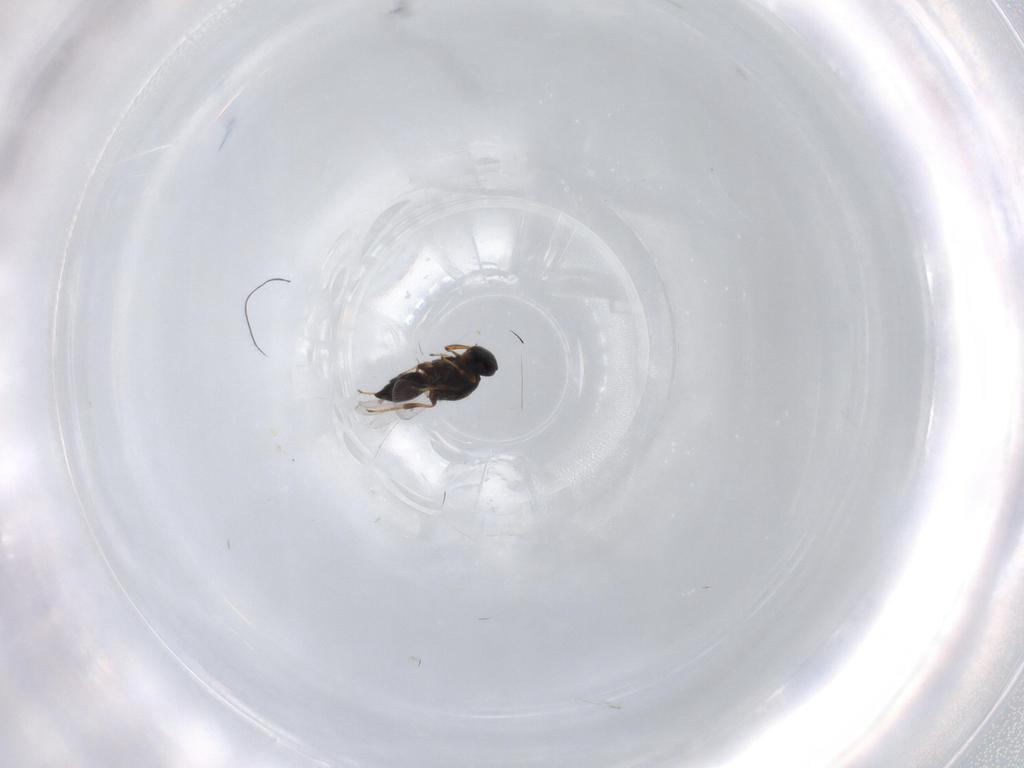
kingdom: Animalia
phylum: Arthropoda
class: Insecta
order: Hymenoptera
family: Platygastridae
